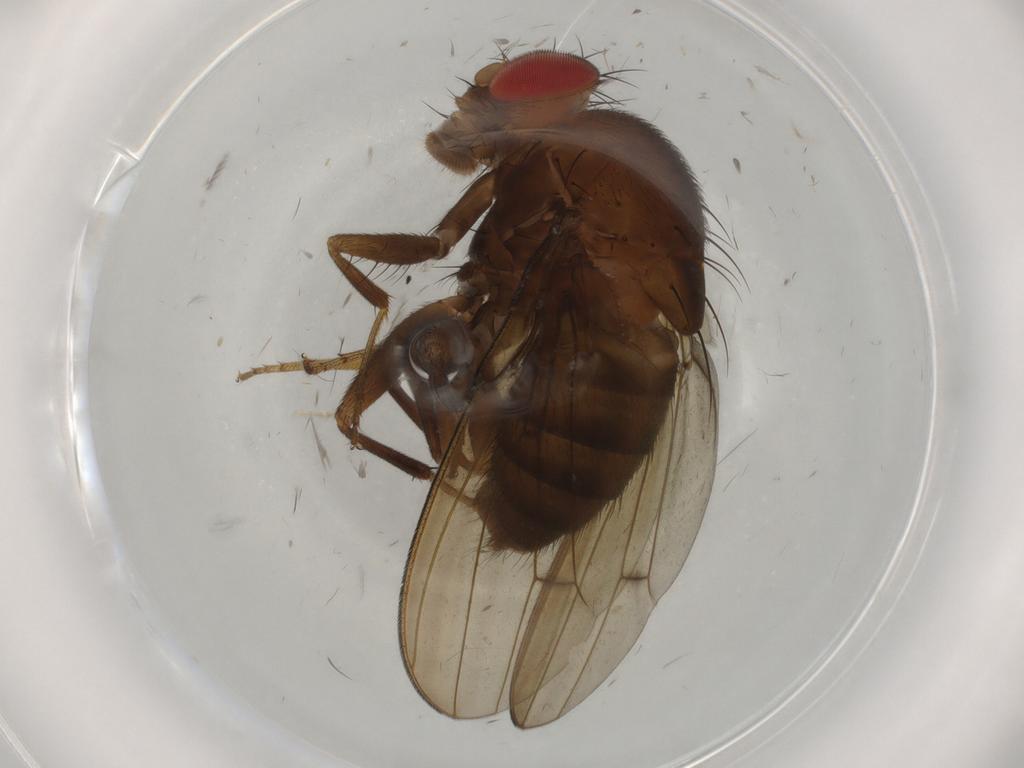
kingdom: Animalia
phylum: Arthropoda
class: Insecta
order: Diptera
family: Drosophilidae
